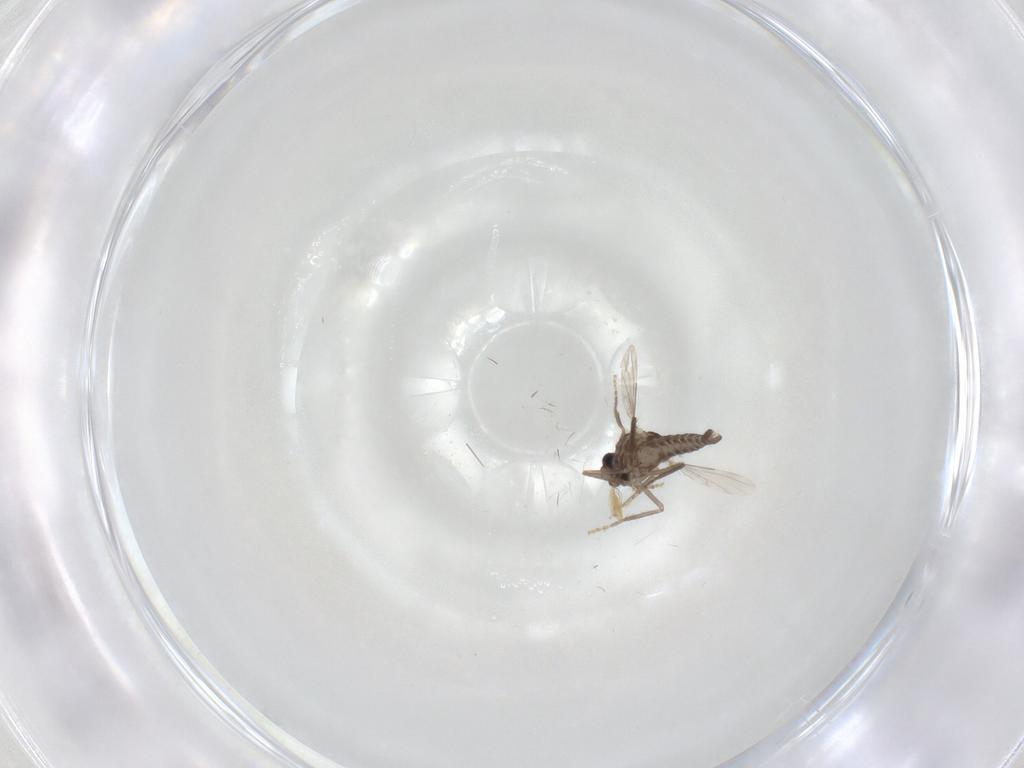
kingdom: Animalia
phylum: Arthropoda
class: Insecta
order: Diptera
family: Ceratopogonidae
